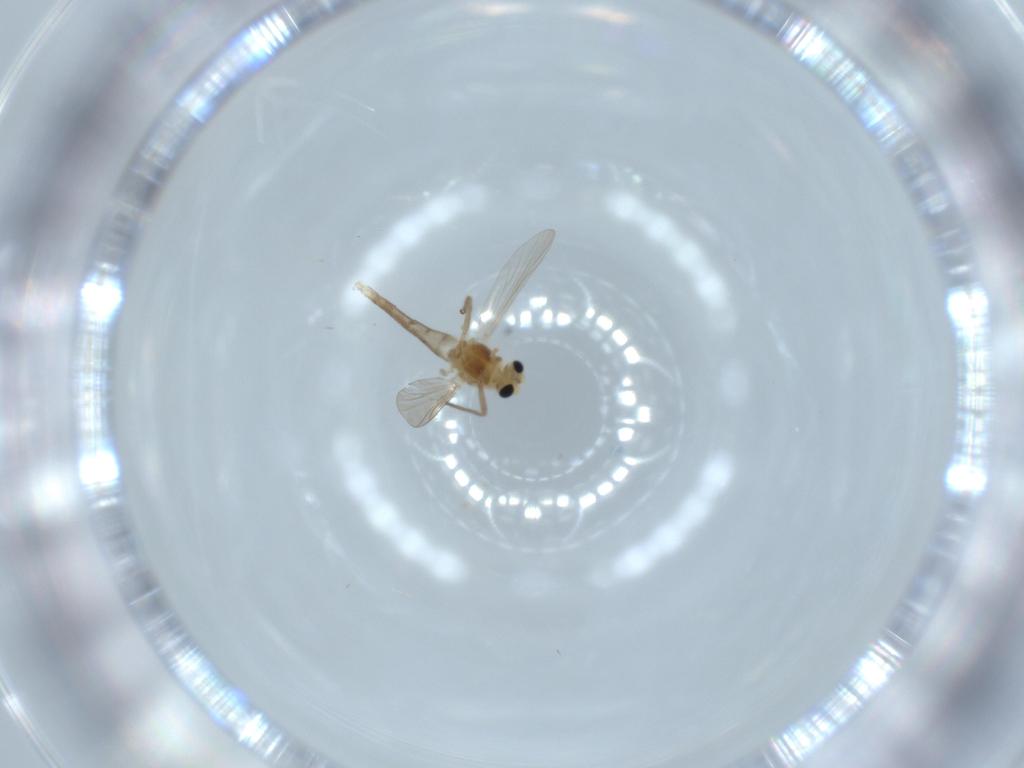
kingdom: Animalia
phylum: Arthropoda
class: Insecta
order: Diptera
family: Chironomidae
